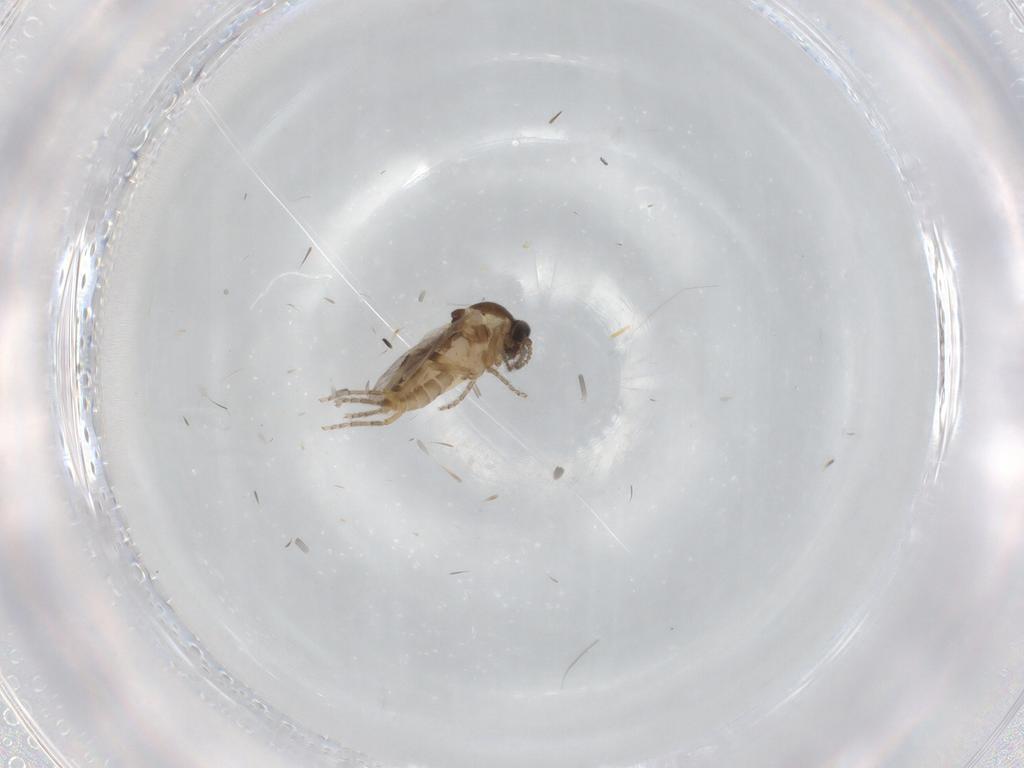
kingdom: Animalia
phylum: Arthropoda
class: Insecta
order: Diptera
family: Ceratopogonidae
